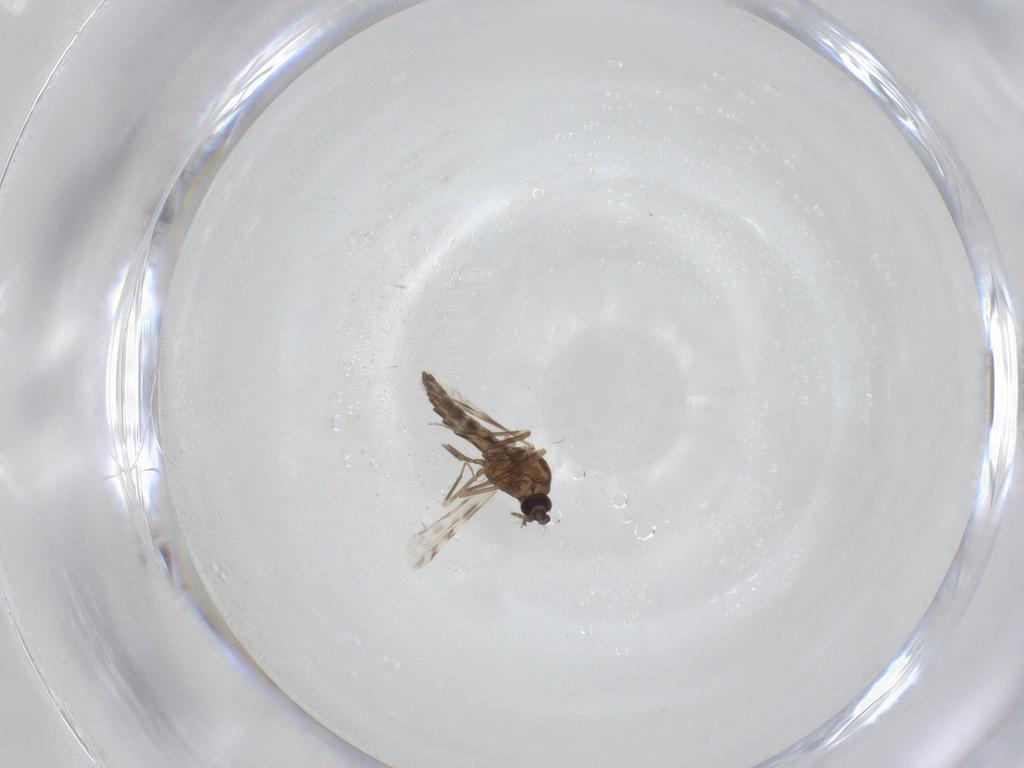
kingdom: Animalia
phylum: Arthropoda
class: Insecta
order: Diptera
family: Ceratopogonidae
